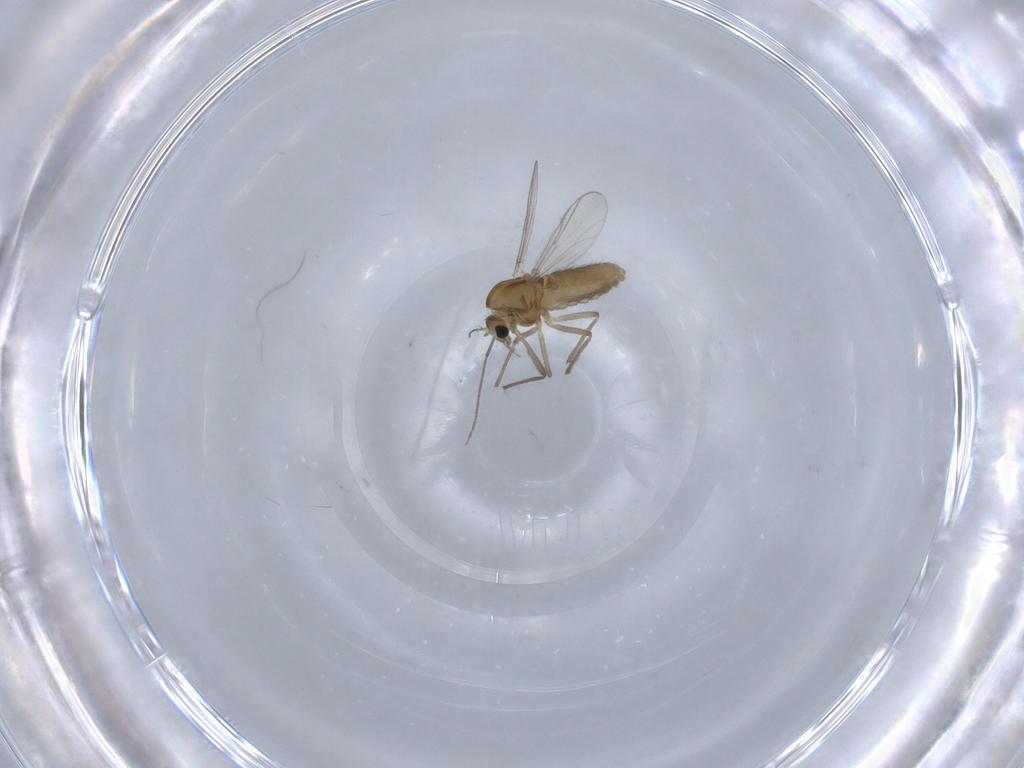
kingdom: Animalia
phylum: Arthropoda
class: Insecta
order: Diptera
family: Chironomidae
